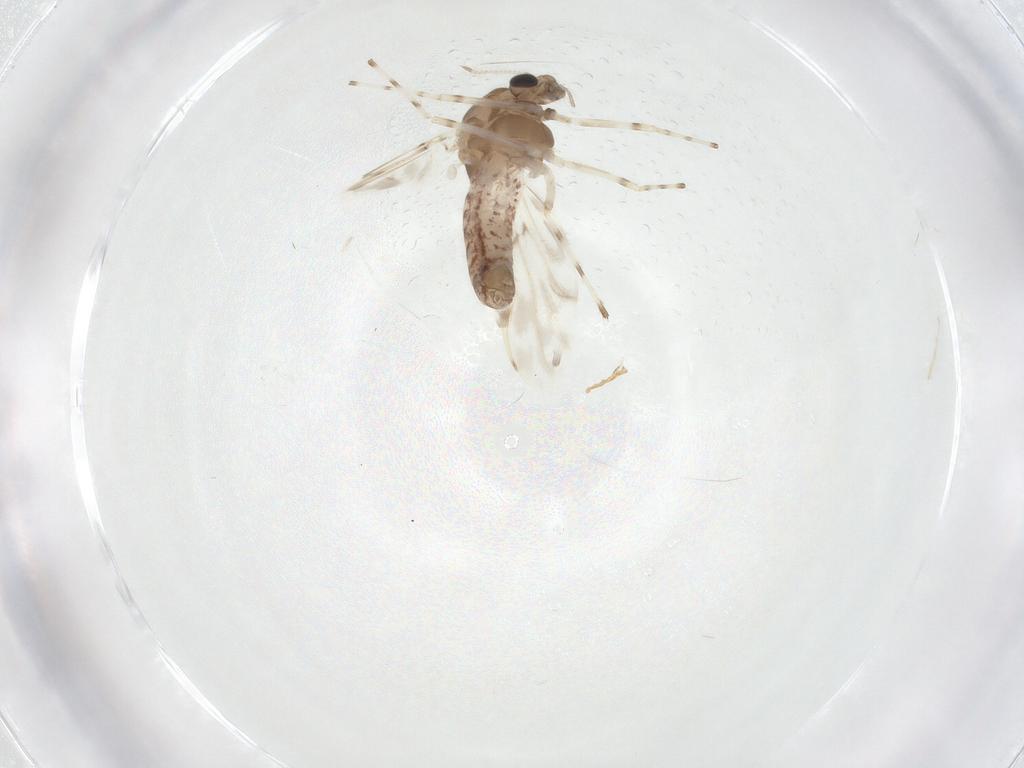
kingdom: Animalia
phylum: Arthropoda
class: Insecta
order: Diptera
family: Chironomidae
